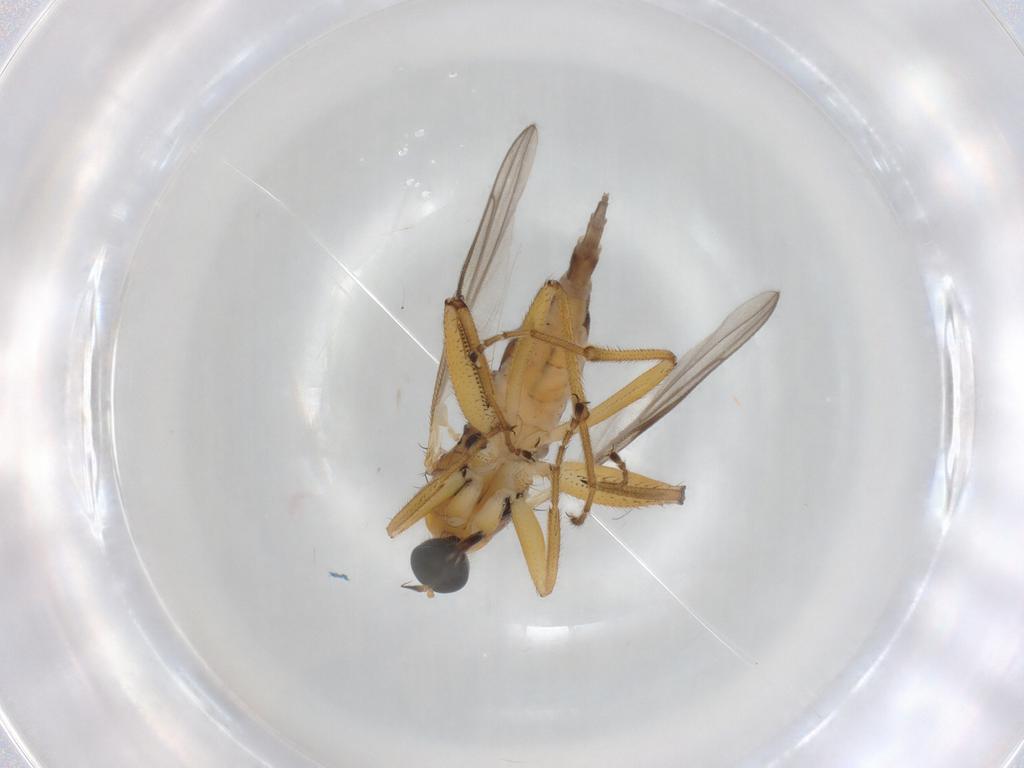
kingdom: Animalia
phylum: Arthropoda
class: Insecta
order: Diptera
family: Hybotidae
